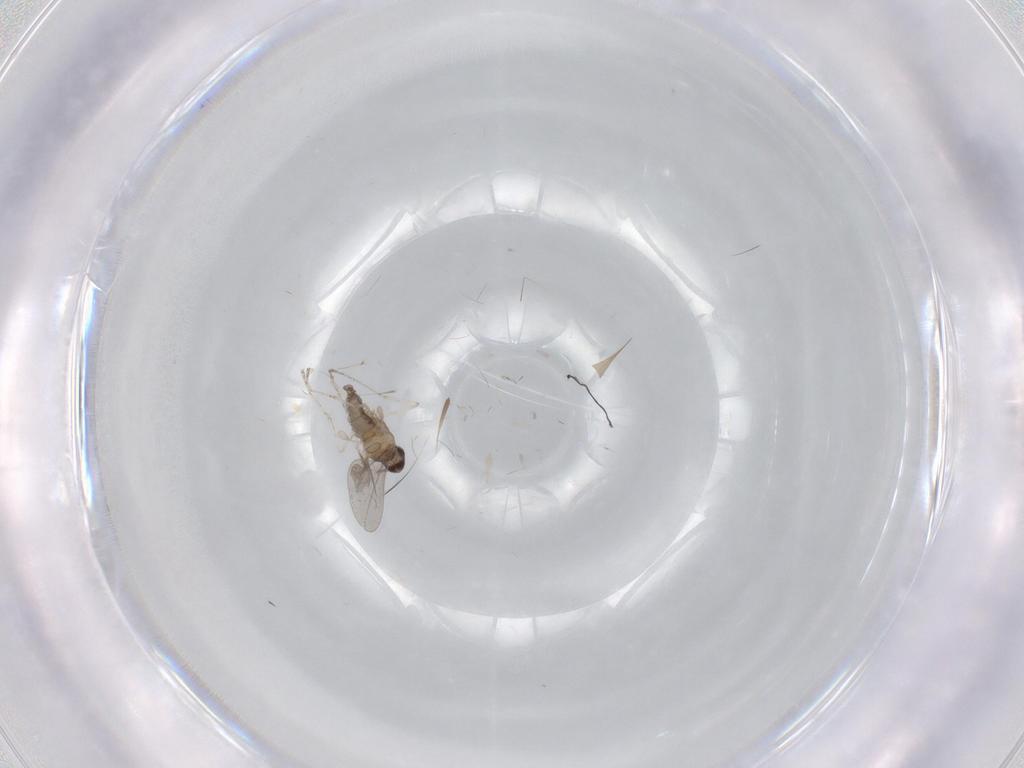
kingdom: Animalia
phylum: Arthropoda
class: Insecta
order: Diptera
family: Cecidomyiidae
